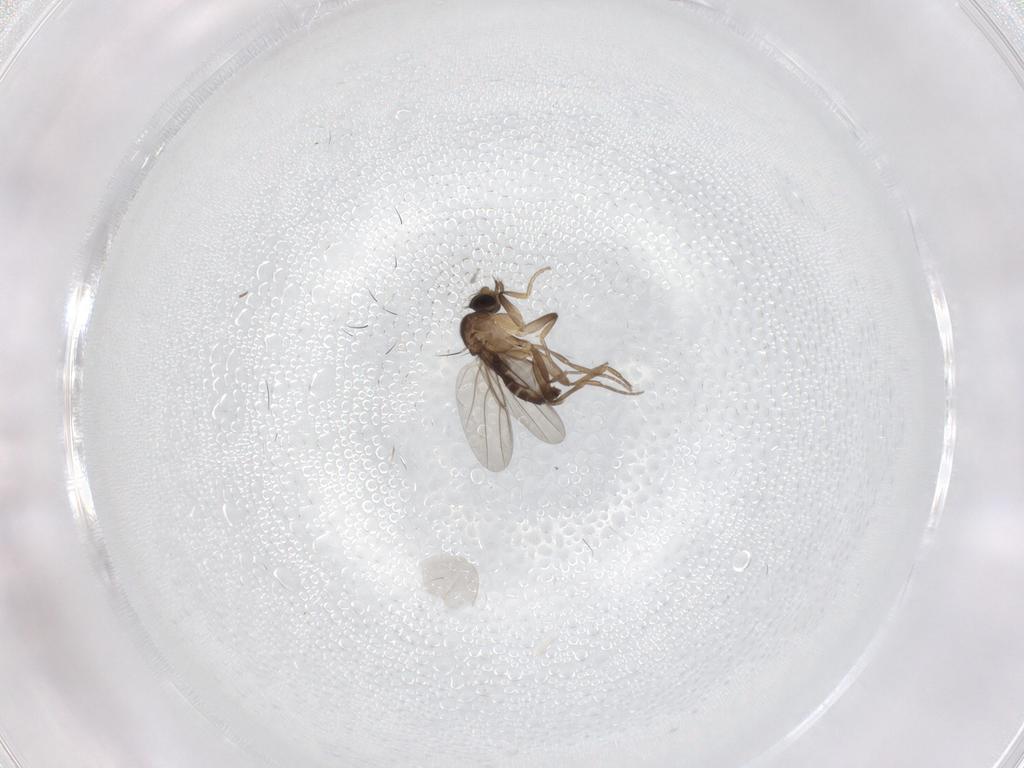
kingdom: Animalia
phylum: Arthropoda
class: Insecta
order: Diptera
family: Phoridae
